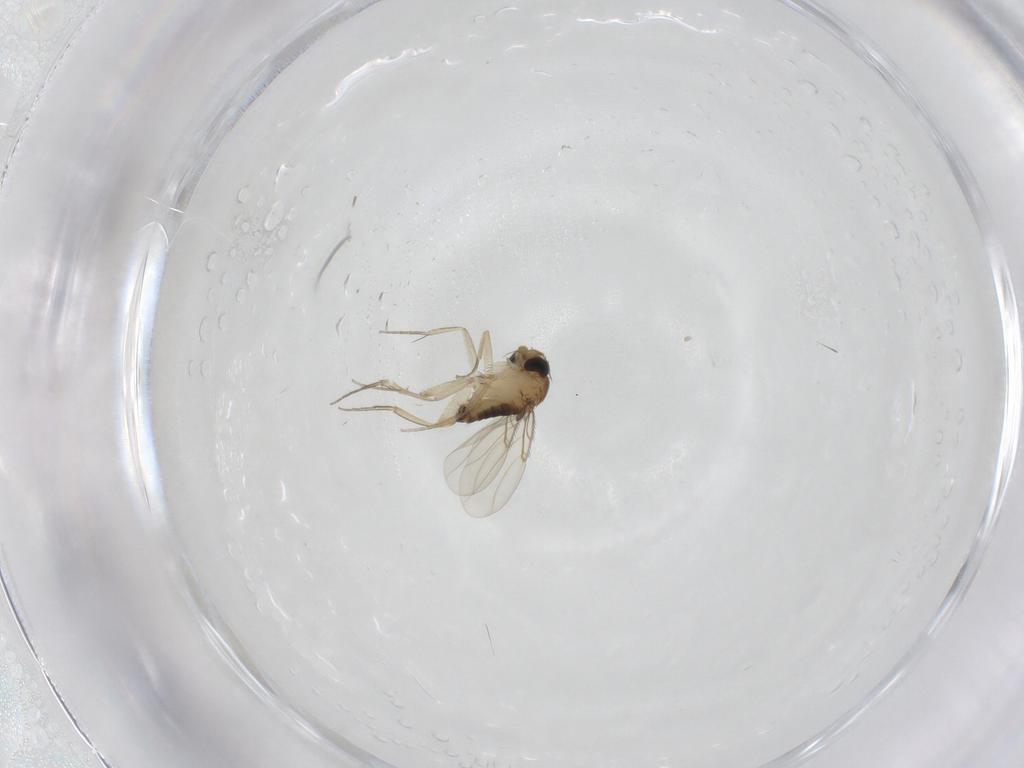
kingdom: Animalia
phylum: Arthropoda
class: Insecta
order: Diptera
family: Phoridae
